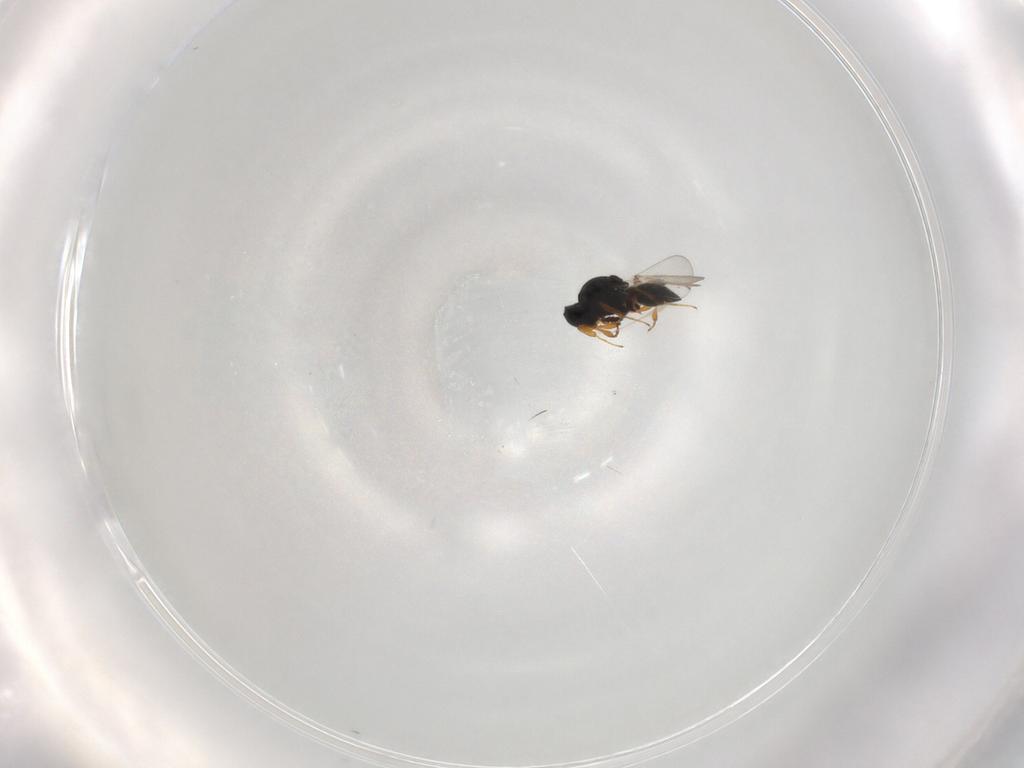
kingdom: Animalia
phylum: Arthropoda
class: Insecta
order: Hymenoptera
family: Platygastridae
